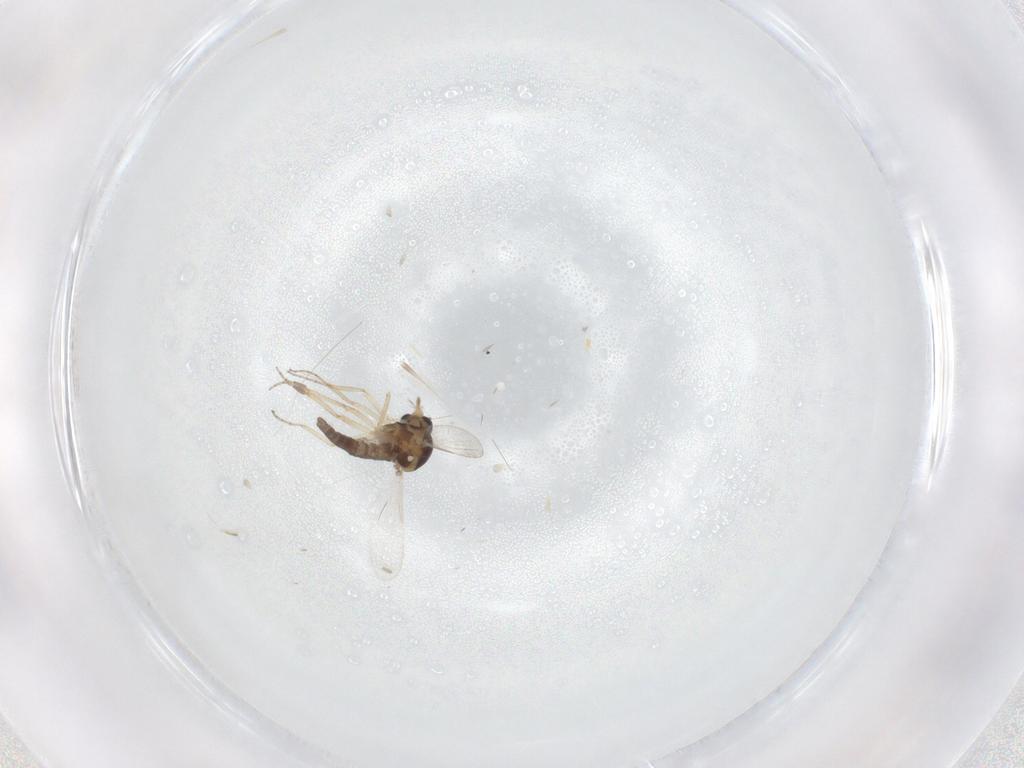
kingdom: Animalia
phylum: Arthropoda
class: Insecta
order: Diptera
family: Ceratopogonidae
